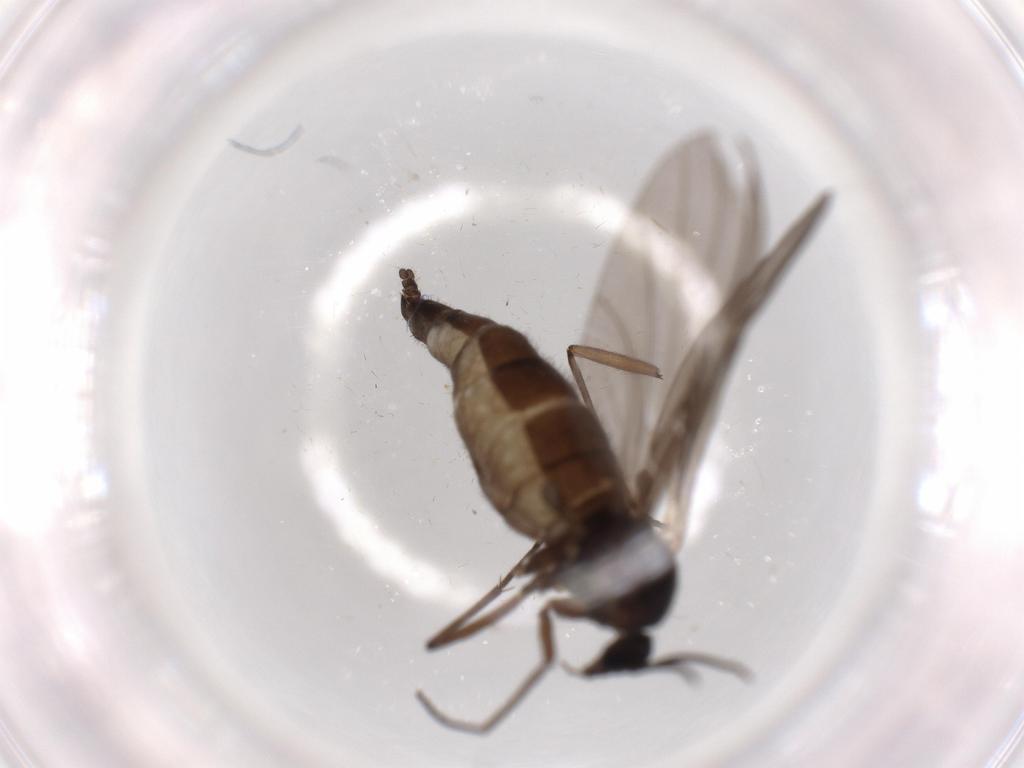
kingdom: Animalia
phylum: Arthropoda
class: Insecta
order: Diptera
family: Sciaridae
